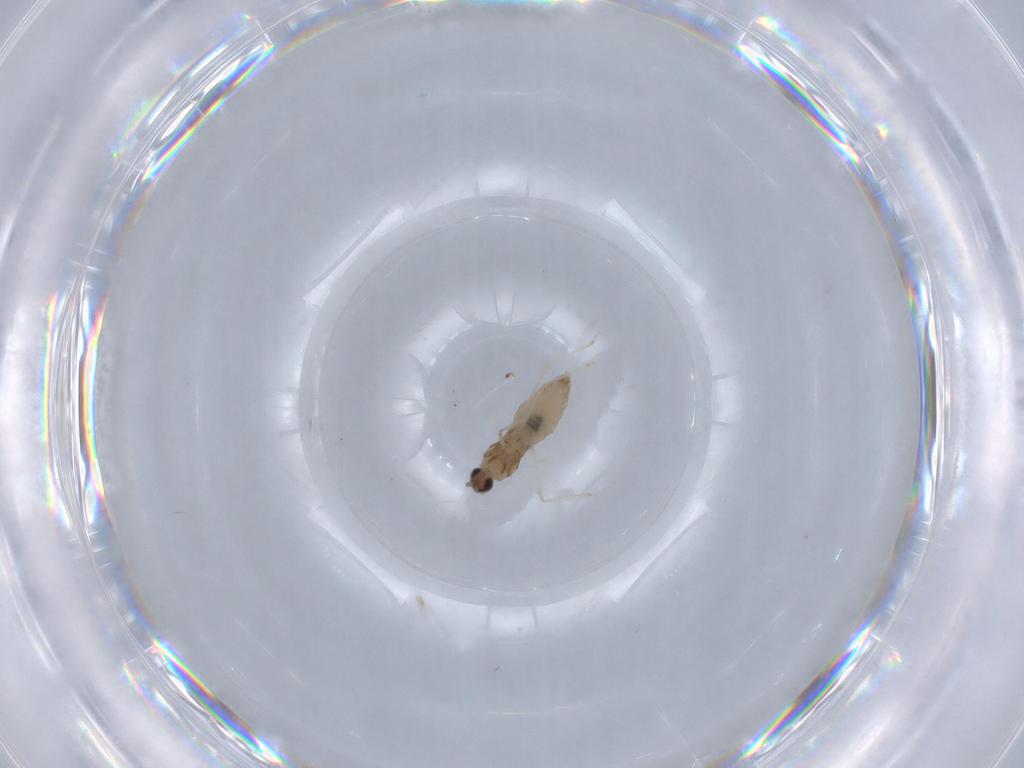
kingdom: Animalia
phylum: Arthropoda
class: Insecta
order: Diptera
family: Cecidomyiidae
